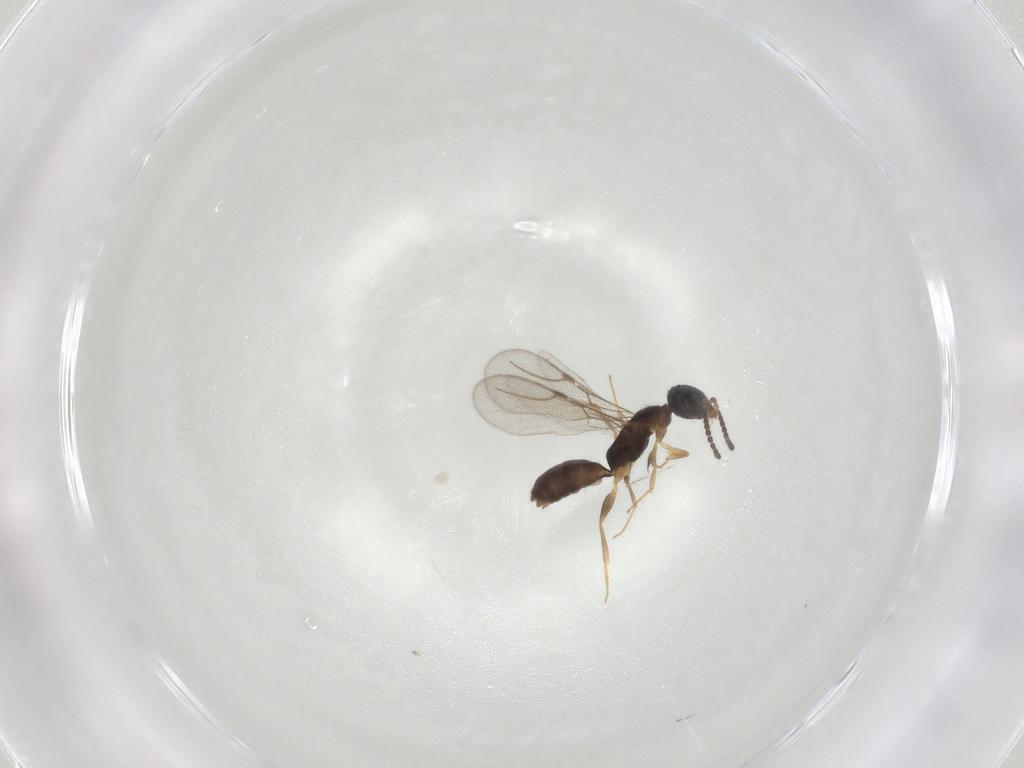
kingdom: Animalia
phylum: Arthropoda
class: Insecta
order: Hymenoptera
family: Bethylidae
